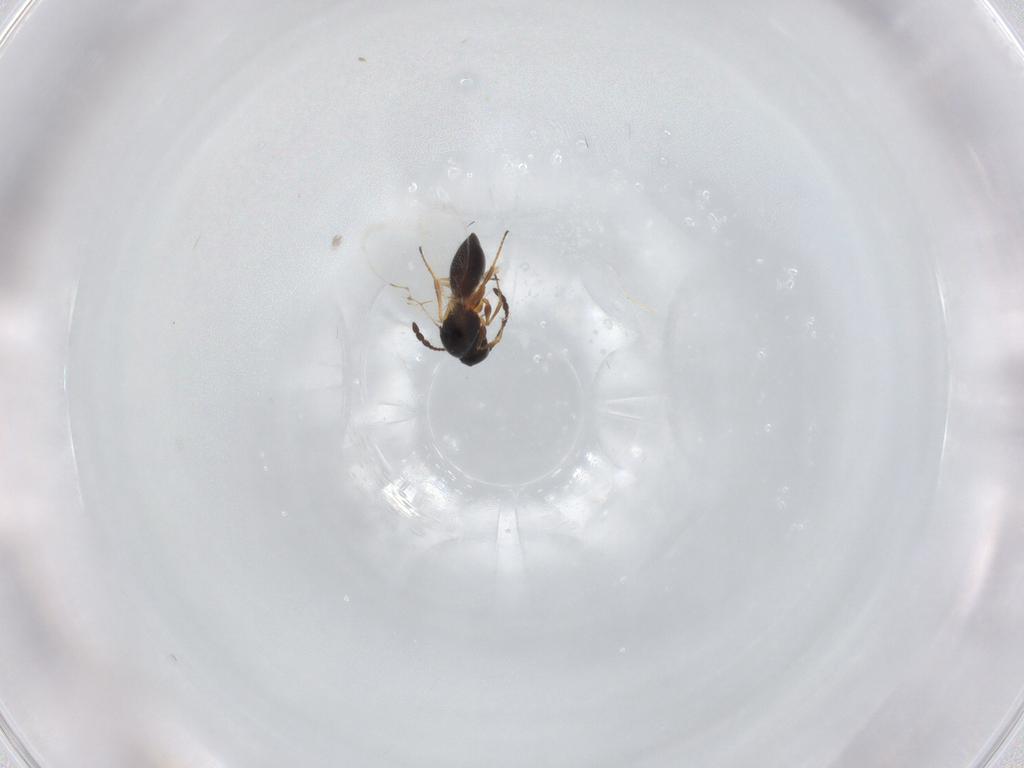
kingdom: Animalia
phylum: Arthropoda
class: Insecta
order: Hymenoptera
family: Figitidae
